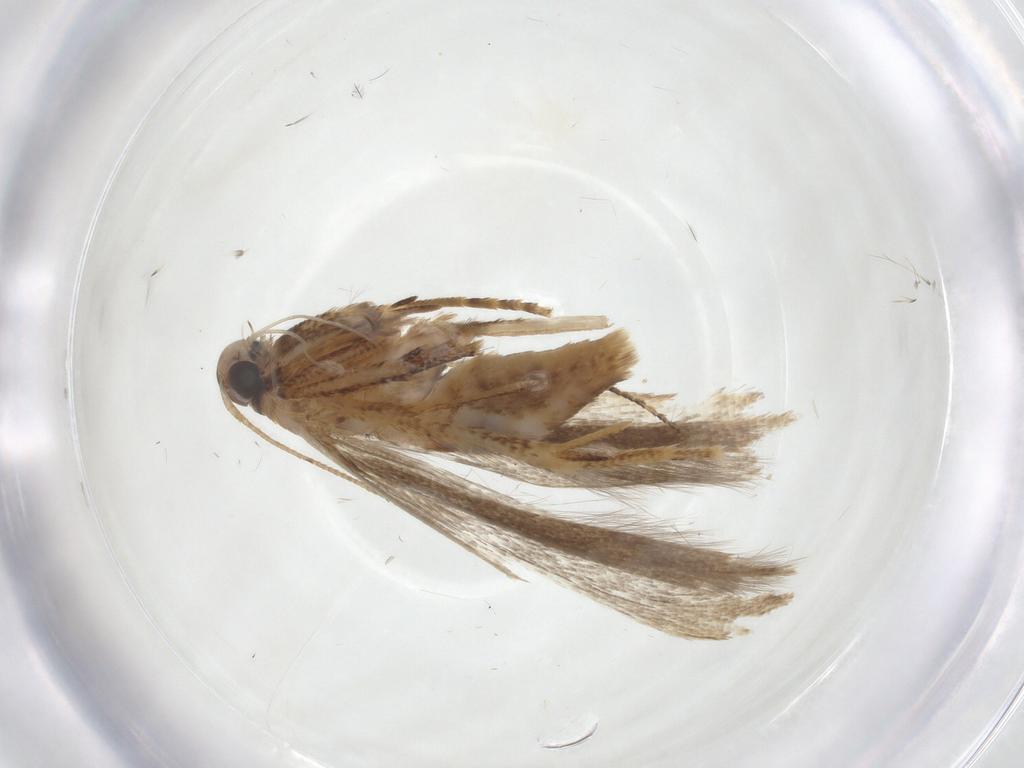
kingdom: Animalia
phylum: Arthropoda
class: Insecta
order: Lepidoptera
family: Gelechiidae
